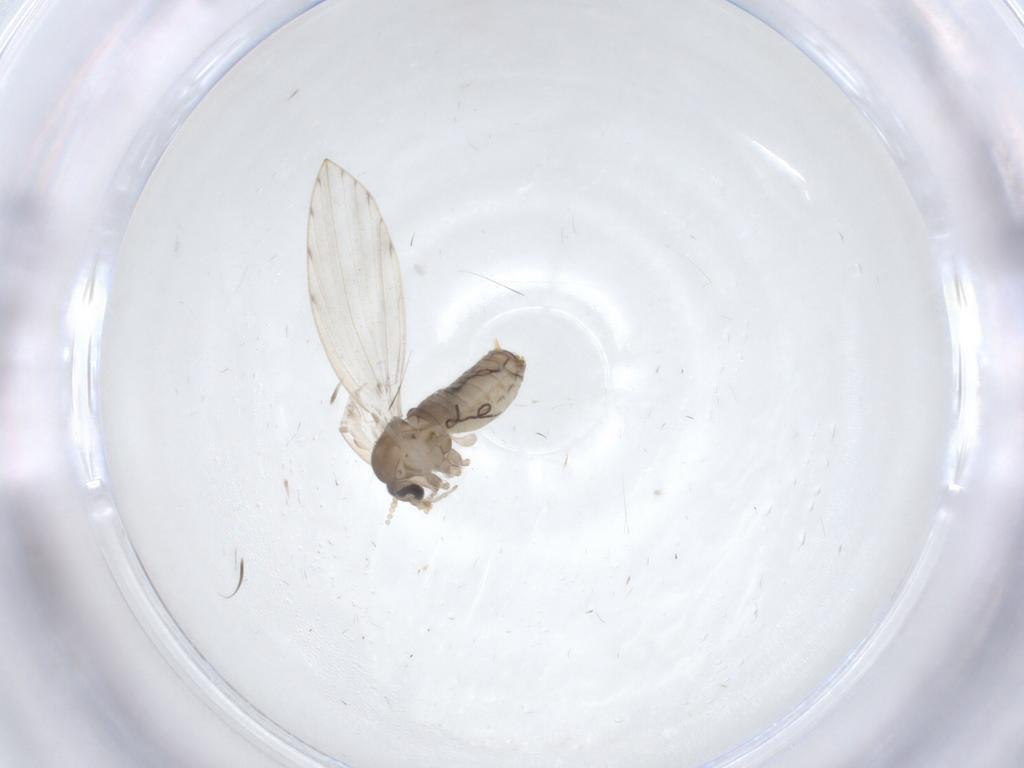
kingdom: Animalia
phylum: Arthropoda
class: Insecta
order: Diptera
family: Psychodidae
